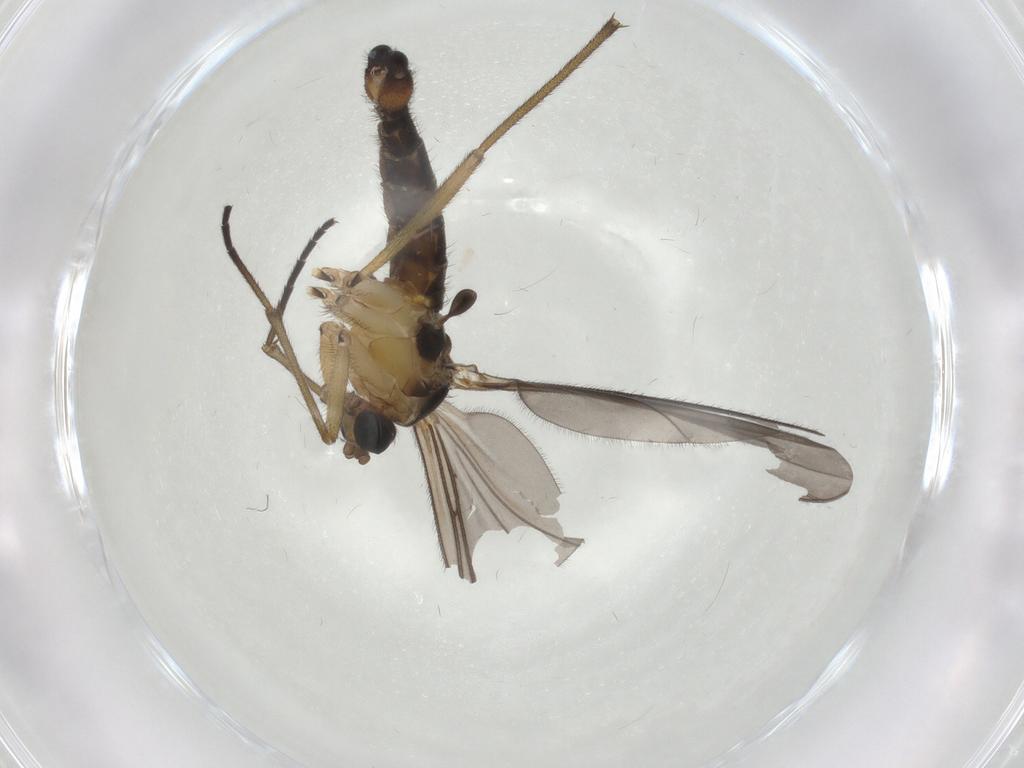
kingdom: Animalia
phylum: Arthropoda
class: Insecta
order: Diptera
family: Sciaridae
